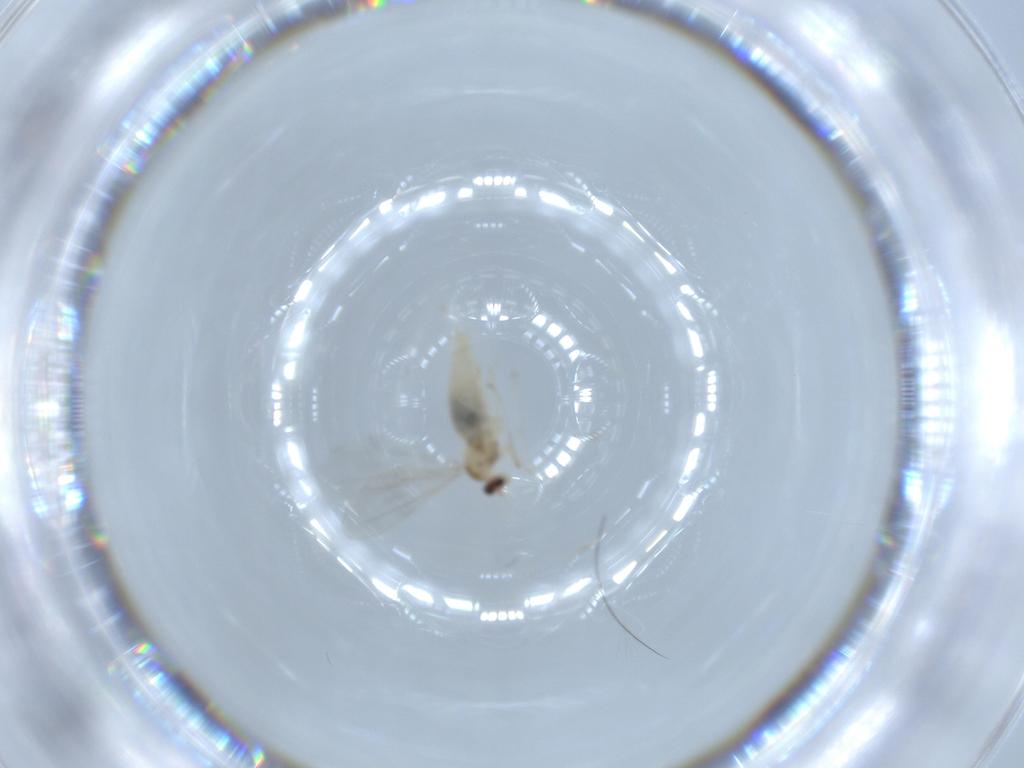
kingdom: Animalia
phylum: Arthropoda
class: Insecta
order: Diptera
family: Cecidomyiidae
